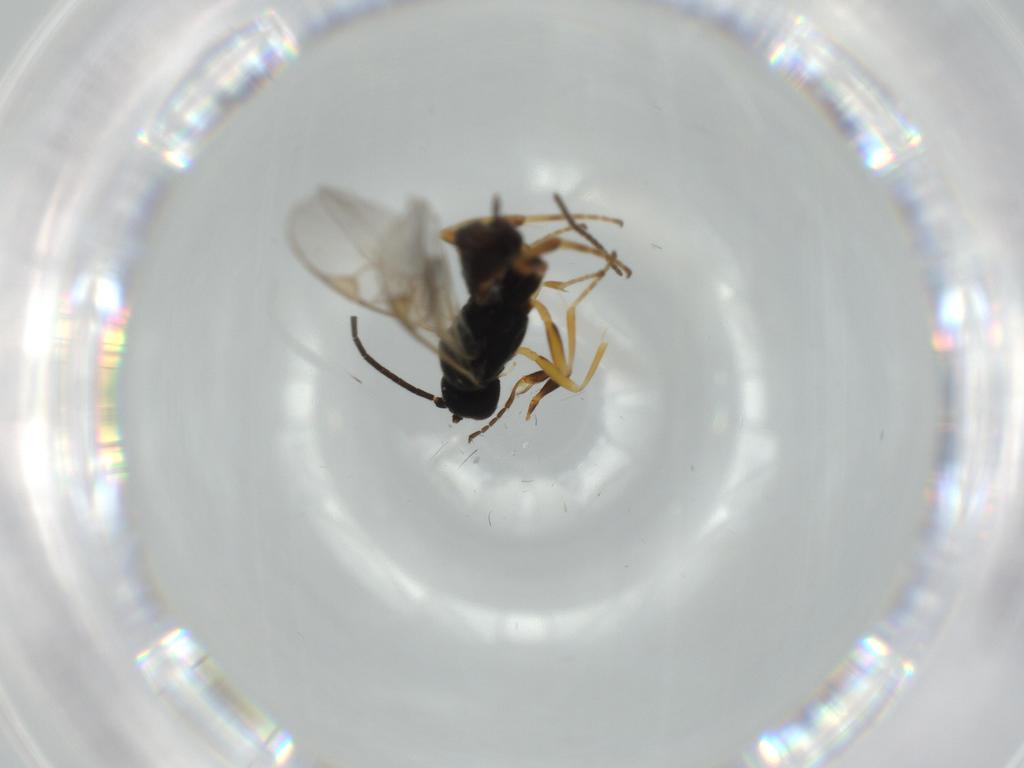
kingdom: Animalia
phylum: Arthropoda
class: Insecta
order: Hymenoptera
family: Braconidae
